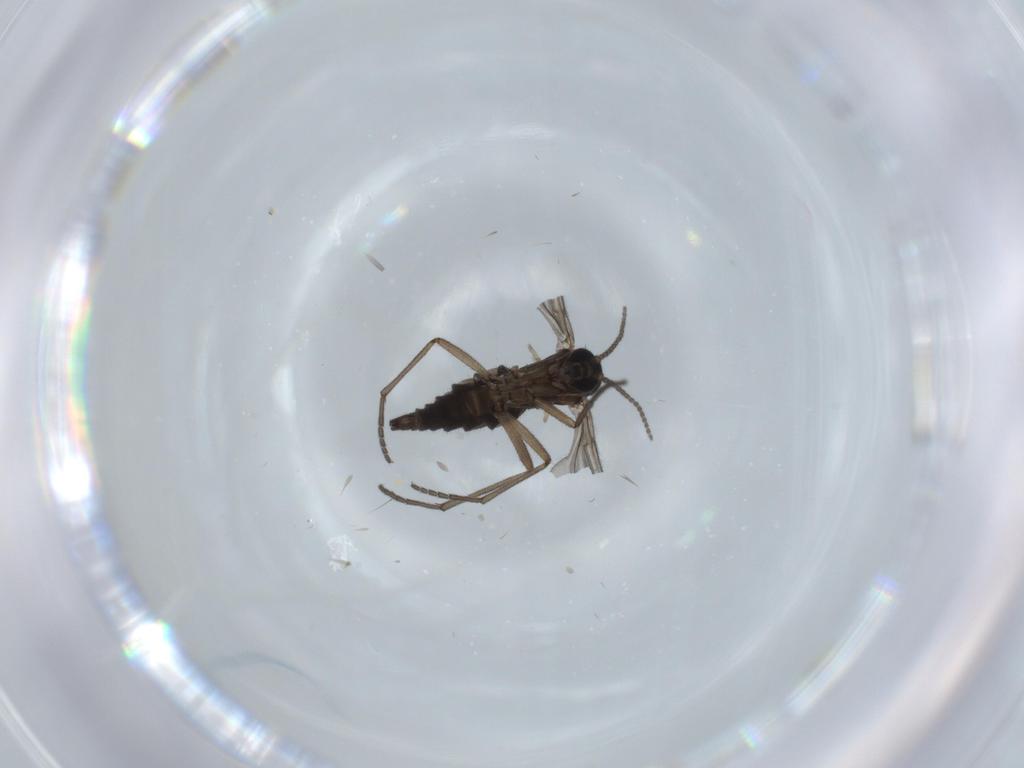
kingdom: Animalia
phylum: Arthropoda
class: Insecta
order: Diptera
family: Sciaridae
